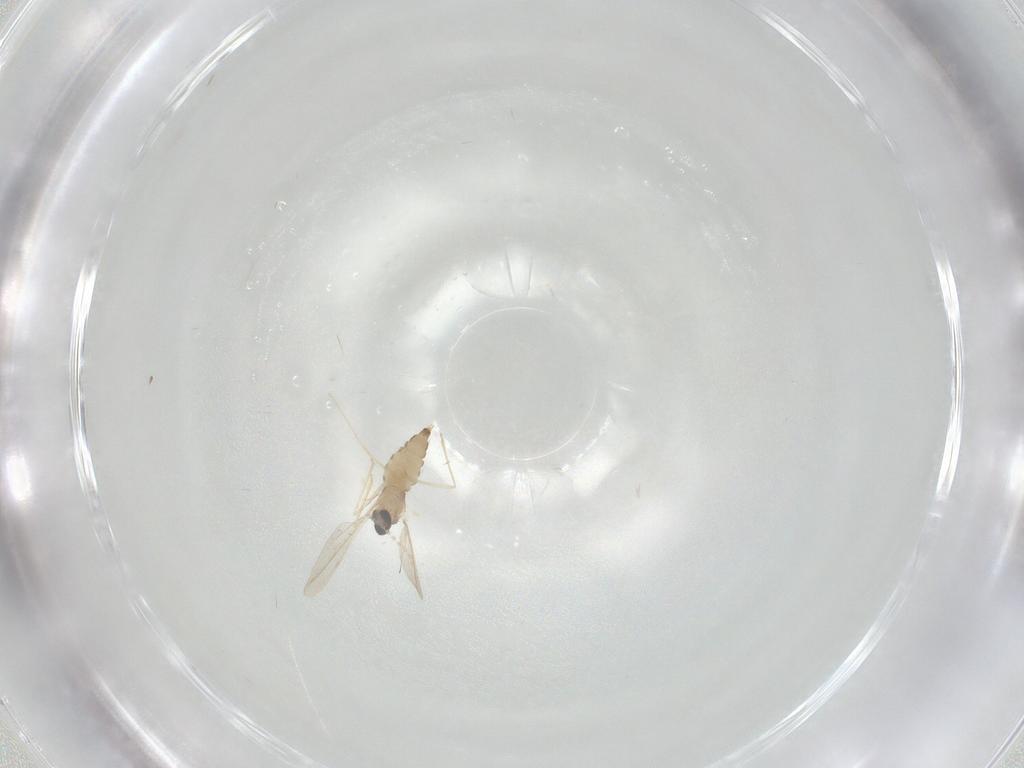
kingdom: Animalia
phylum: Arthropoda
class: Insecta
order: Diptera
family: Cecidomyiidae
